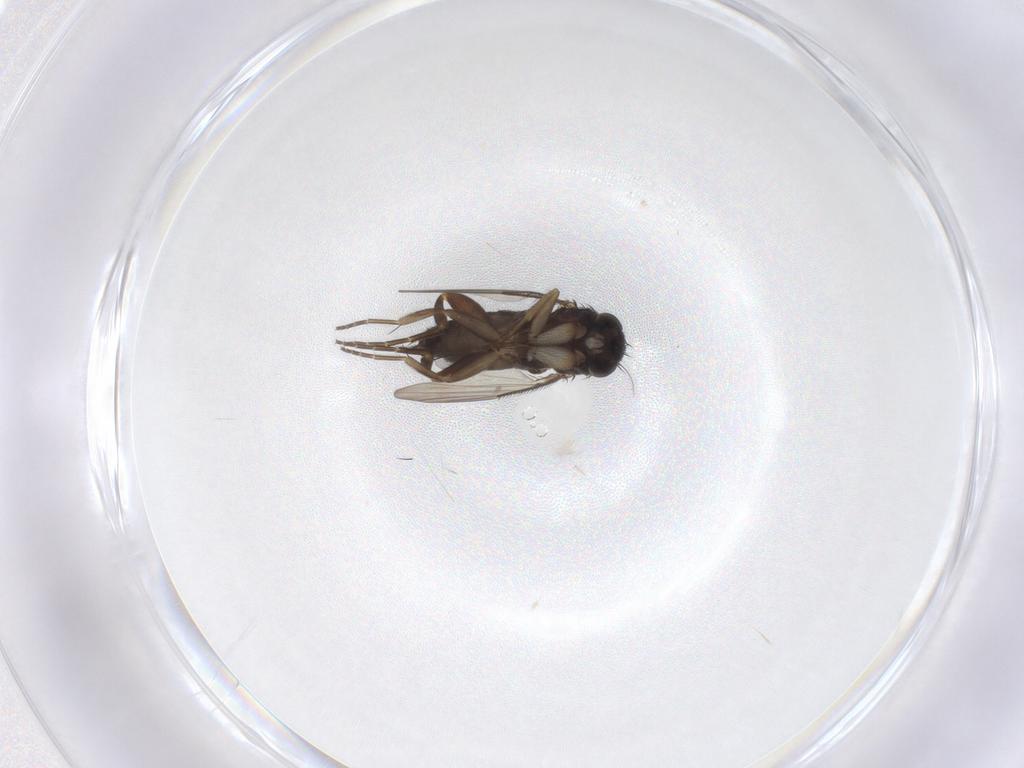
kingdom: Animalia
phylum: Arthropoda
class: Insecta
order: Diptera
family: Phoridae
